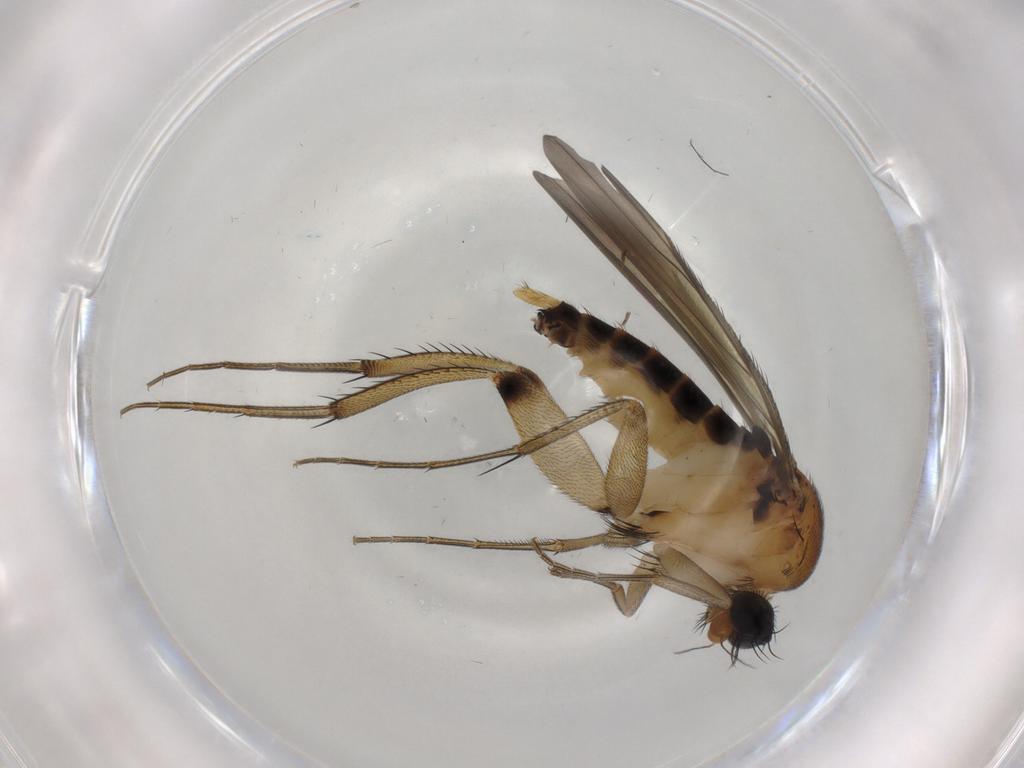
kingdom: Animalia
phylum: Arthropoda
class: Insecta
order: Diptera
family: Phoridae
